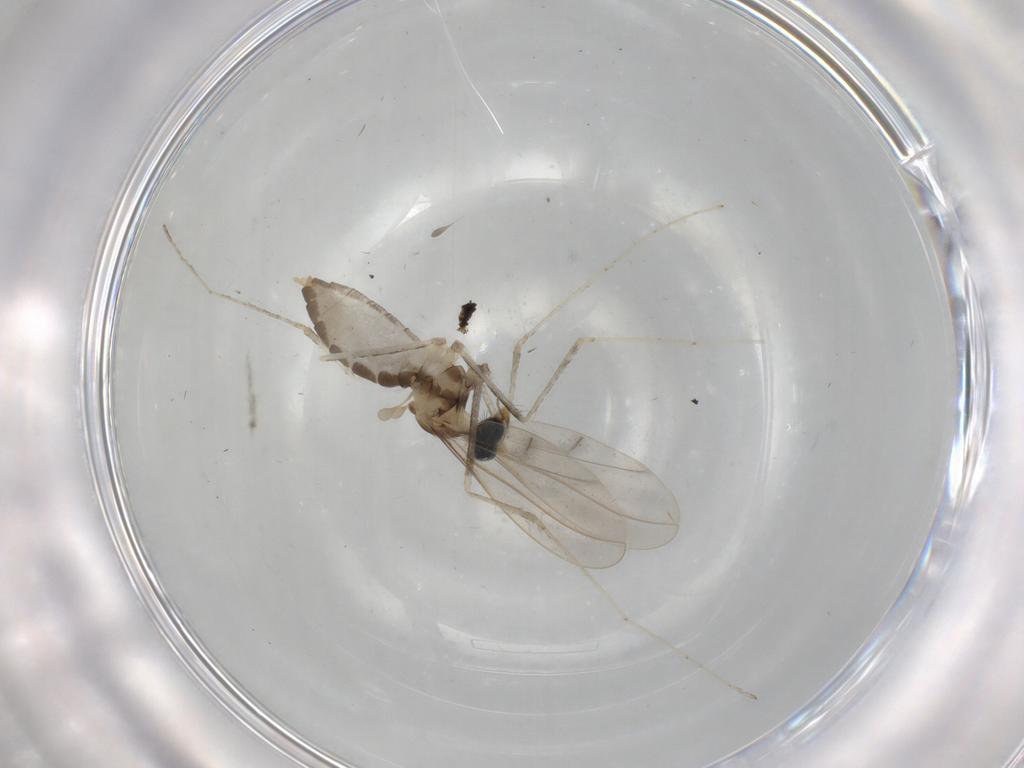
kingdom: Animalia
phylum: Arthropoda
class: Insecta
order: Diptera
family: Cecidomyiidae
